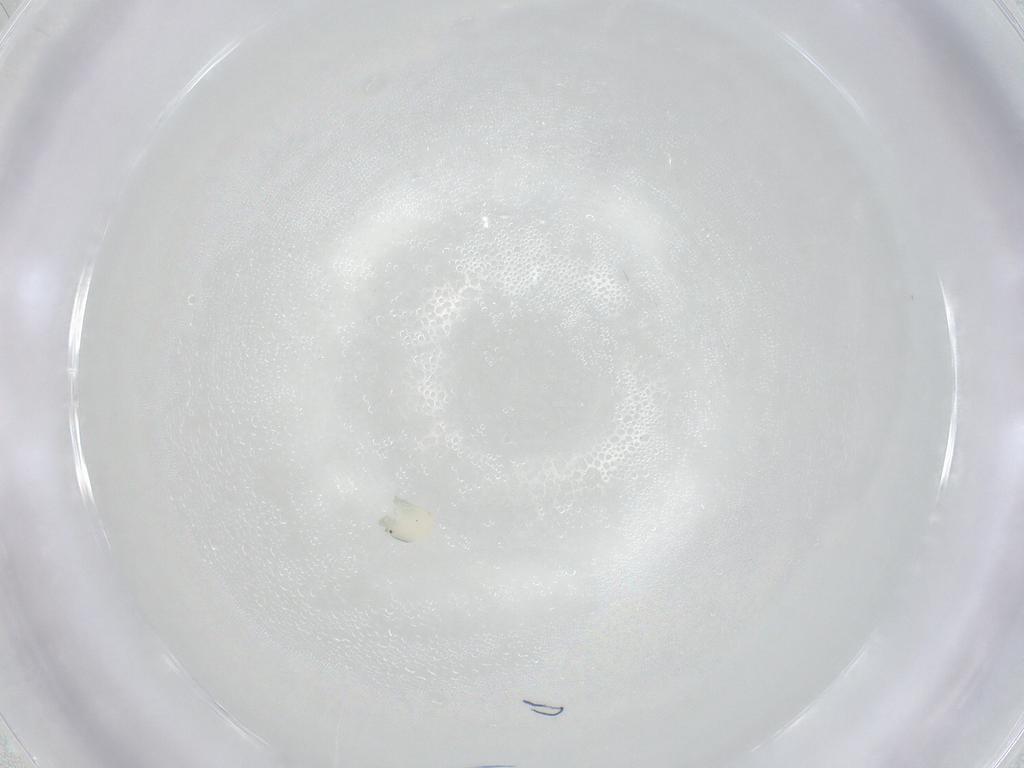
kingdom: Animalia
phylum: Arthropoda
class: Arachnida
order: Trombidiformes
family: Arrenuridae
